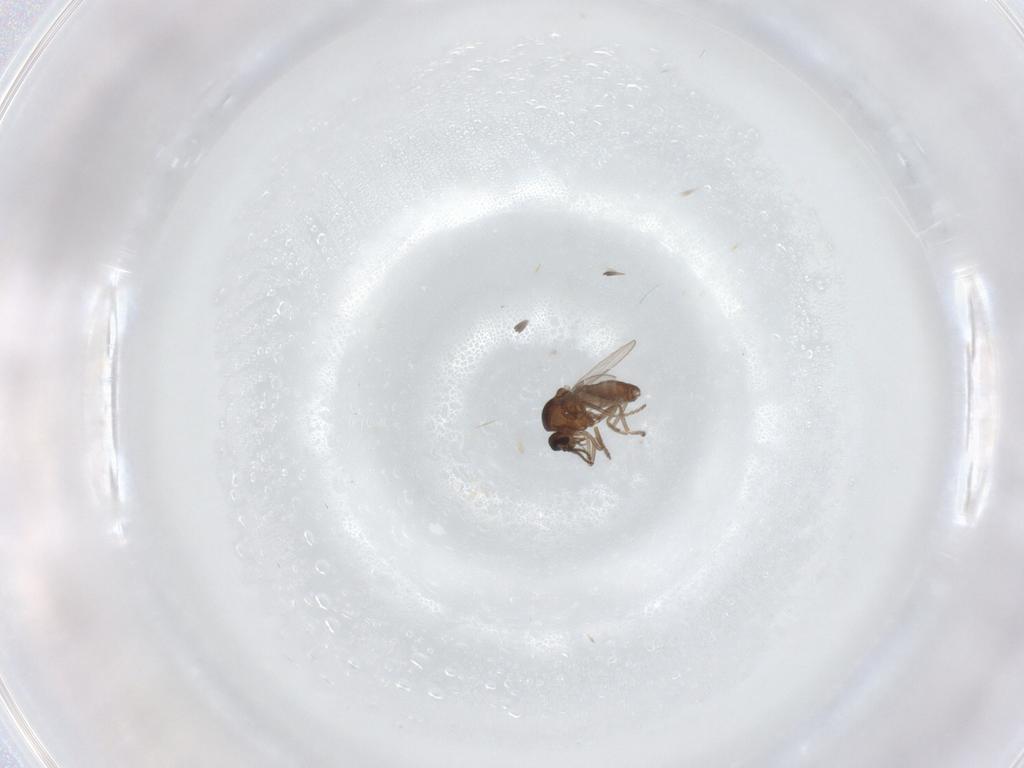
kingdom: Animalia
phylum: Arthropoda
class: Insecta
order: Diptera
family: Ceratopogonidae
